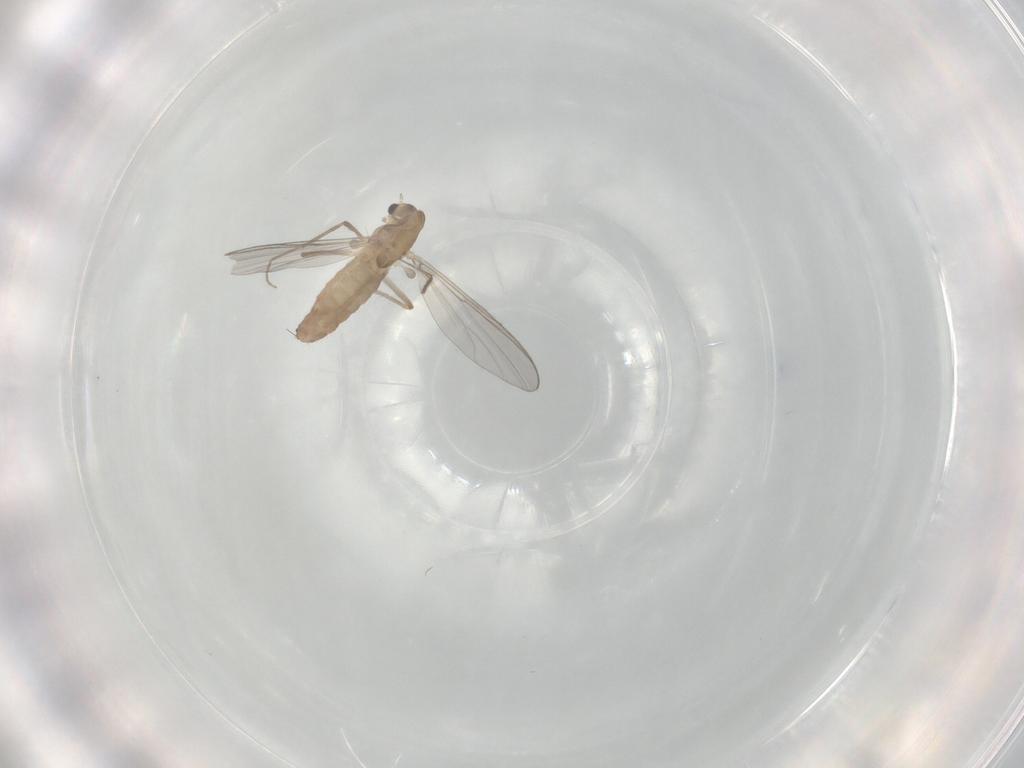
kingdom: Animalia
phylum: Arthropoda
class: Insecta
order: Diptera
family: Chironomidae
